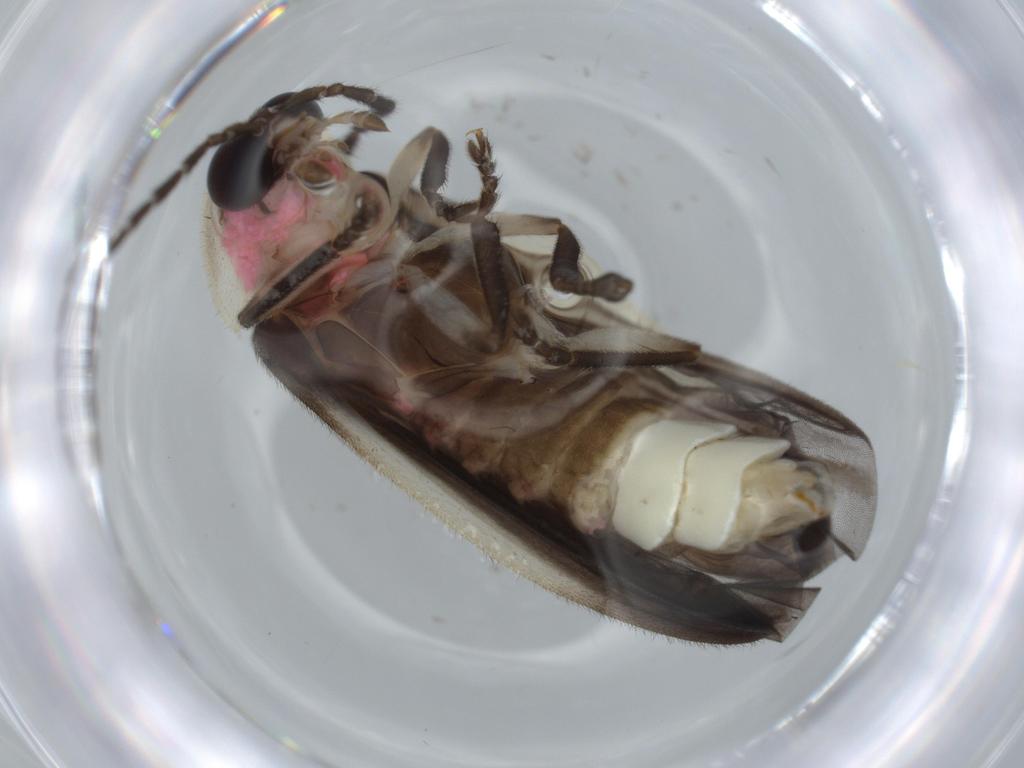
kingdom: Animalia
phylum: Arthropoda
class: Insecta
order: Coleoptera
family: Lampyridae
